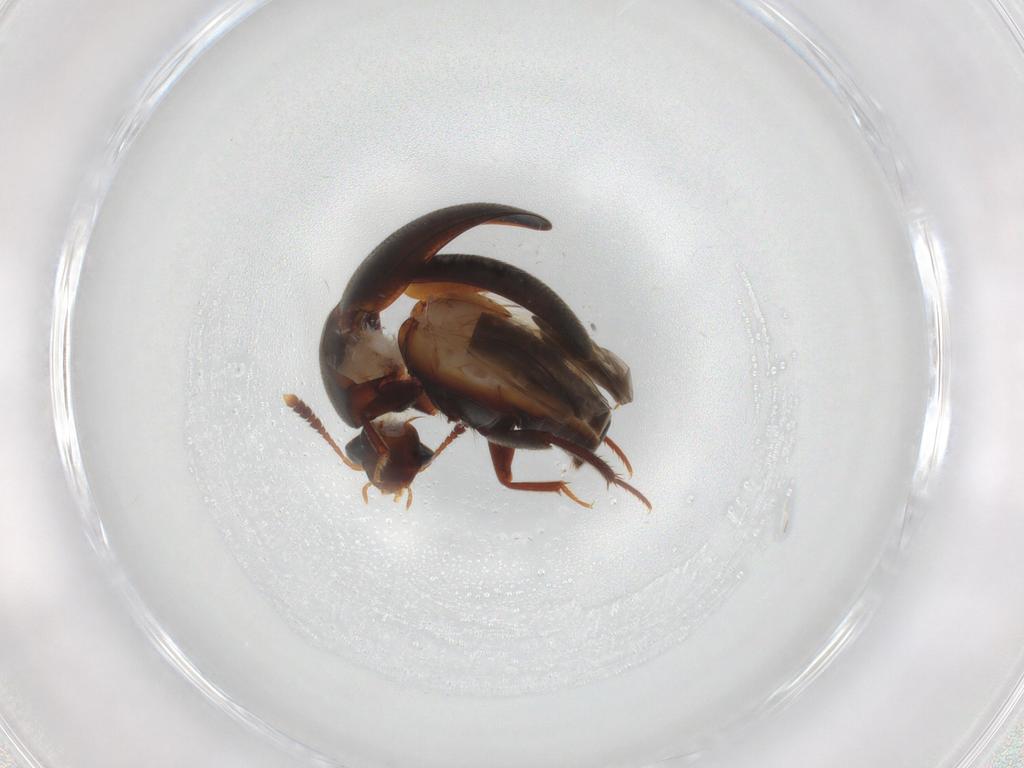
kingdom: Animalia
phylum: Arthropoda
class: Insecta
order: Coleoptera
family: Leiodidae
